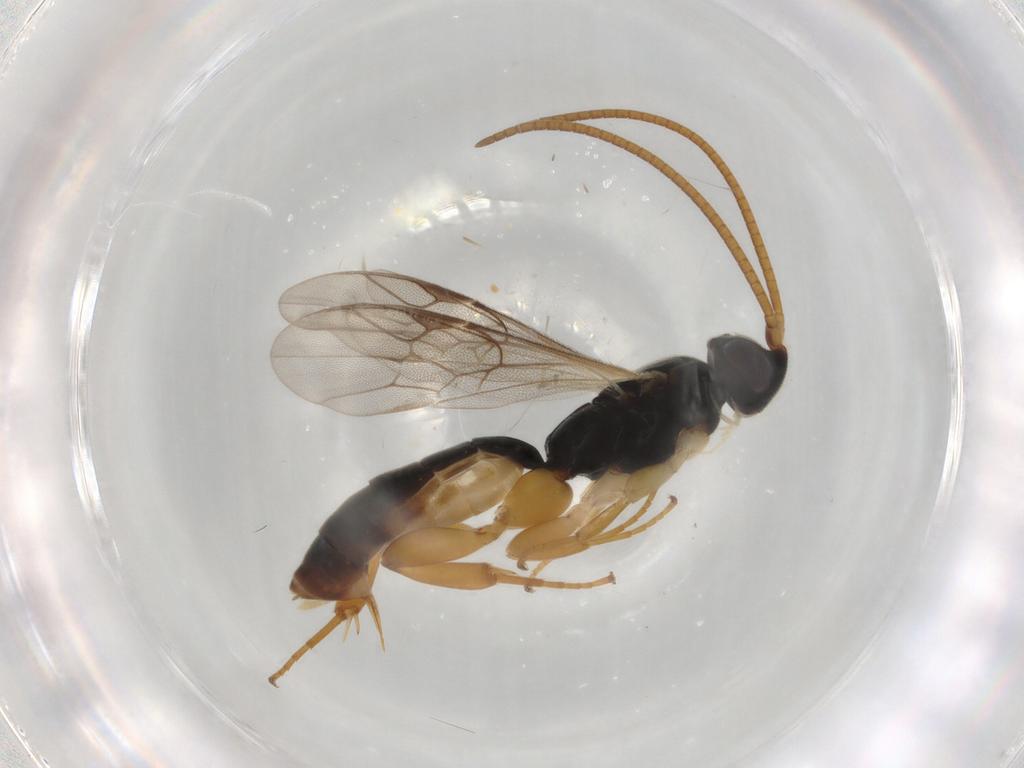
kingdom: Animalia
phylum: Arthropoda
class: Insecta
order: Hymenoptera
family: Ichneumonidae
